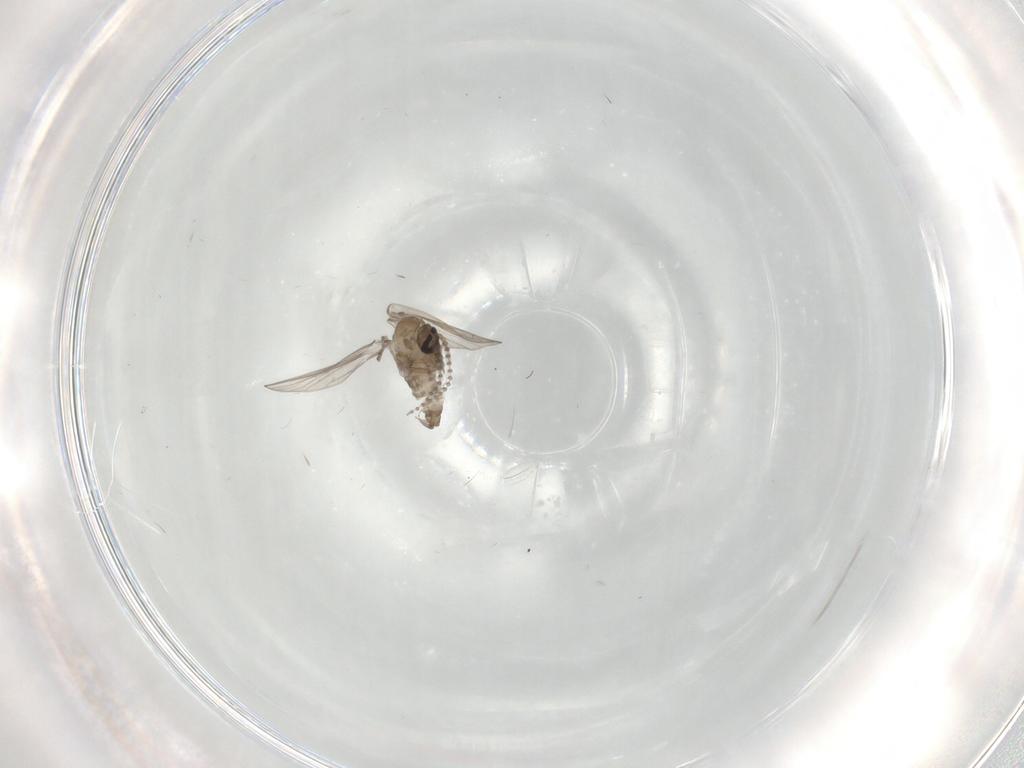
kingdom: Animalia
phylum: Arthropoda
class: Insecta
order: Diptera
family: Psychodidae
